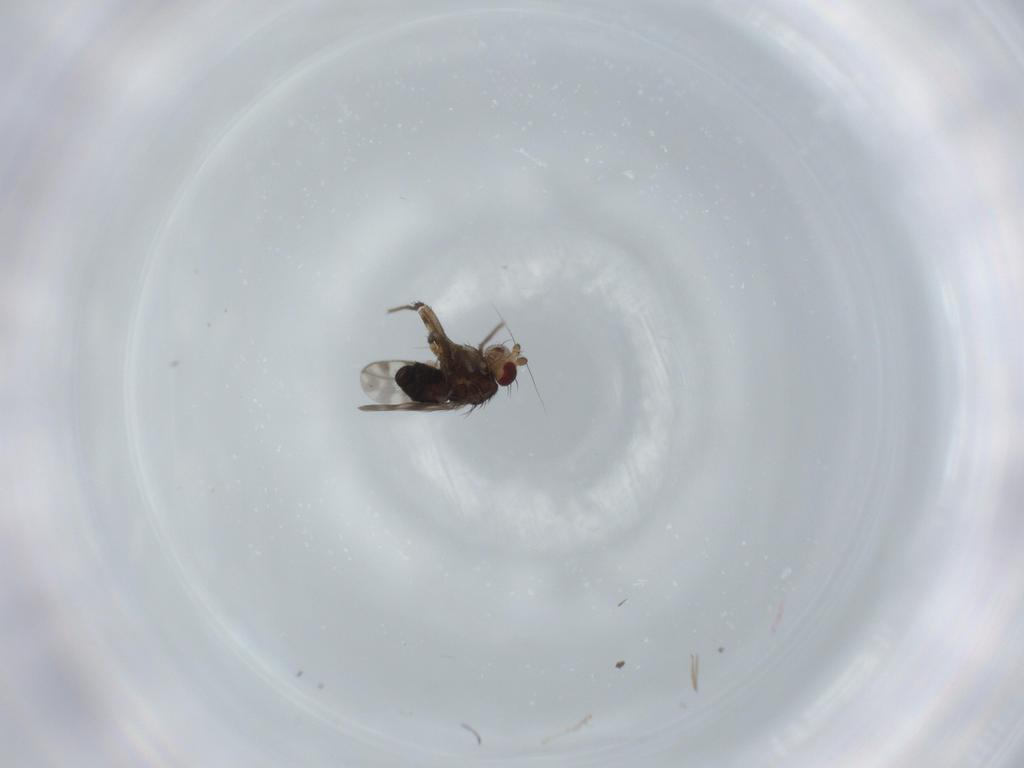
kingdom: Animalia
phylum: Arthropoda
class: Insecta
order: Diptera
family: Sphaeroceridae
